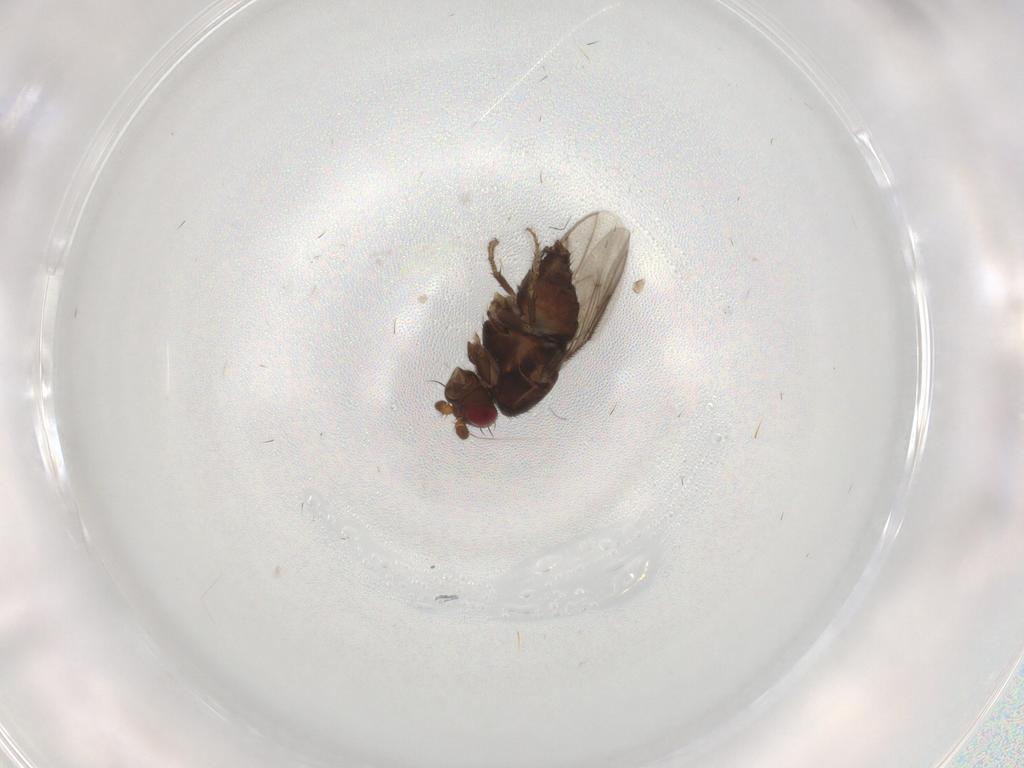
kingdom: Animalia
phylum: Arthropoda
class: Insecta
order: Diptera
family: Sphaeroceridae
